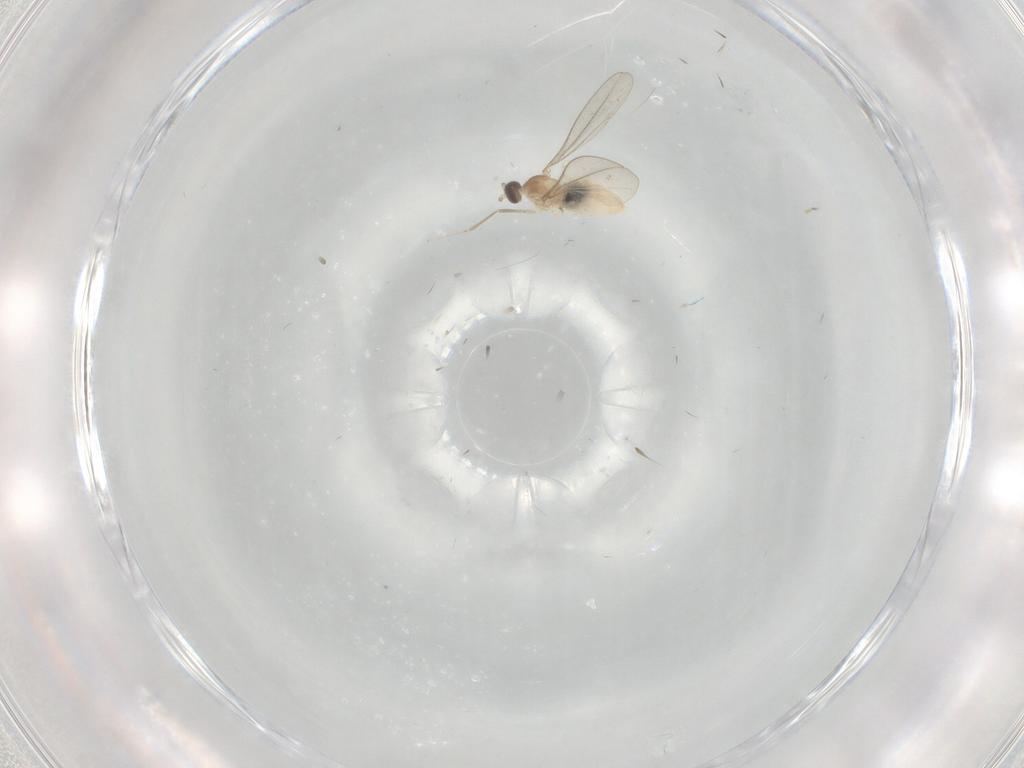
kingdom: Animalia
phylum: Arthropoda
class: Insecta
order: Diptera
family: Cecidomyiidae
